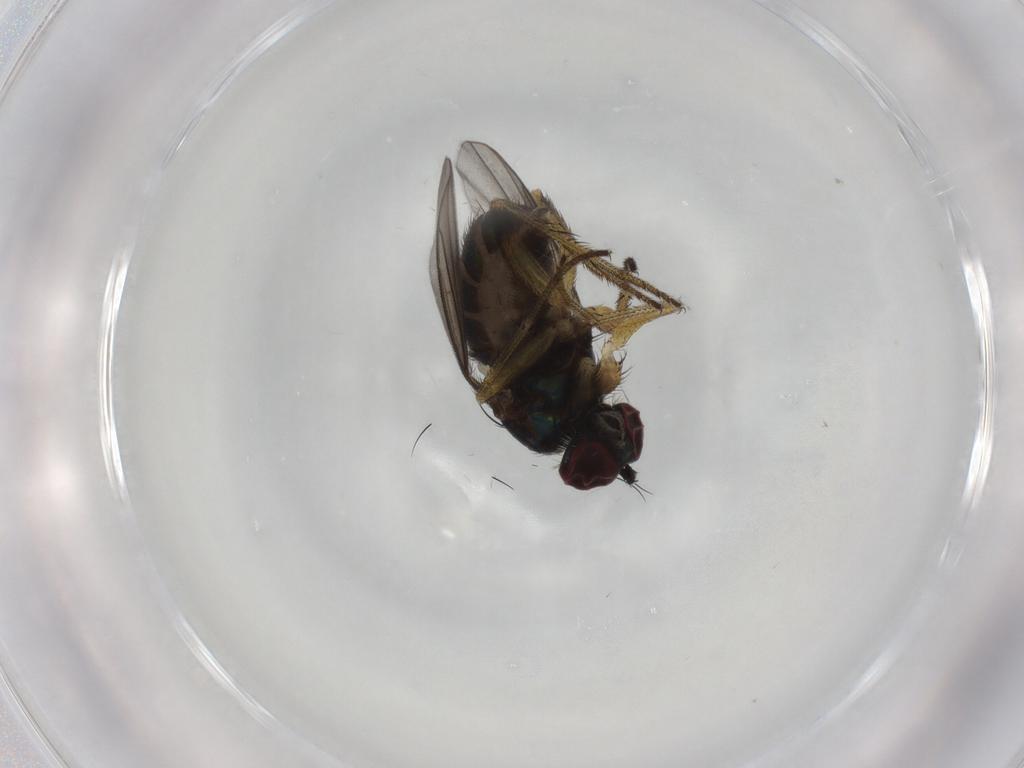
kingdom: Animalia
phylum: Arthropoda
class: Insecta
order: Diptera
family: Dolichopodidae
